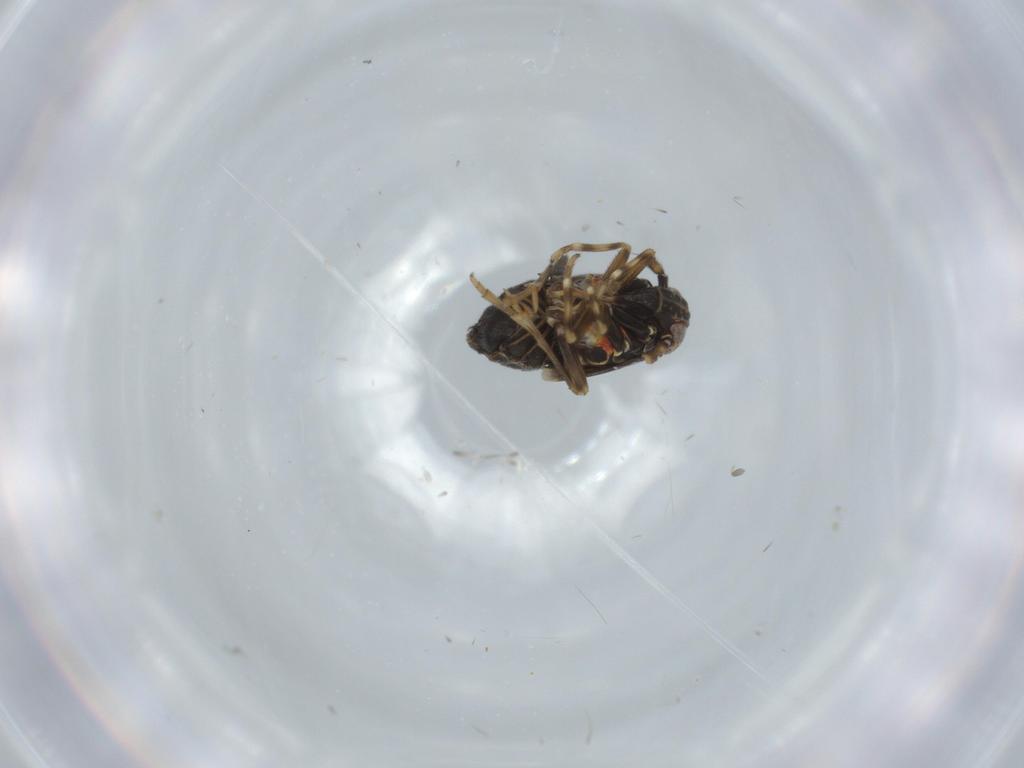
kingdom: Animalia
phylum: Arthropoda
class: Insecta
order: Hemiptera
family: Delphacidae
